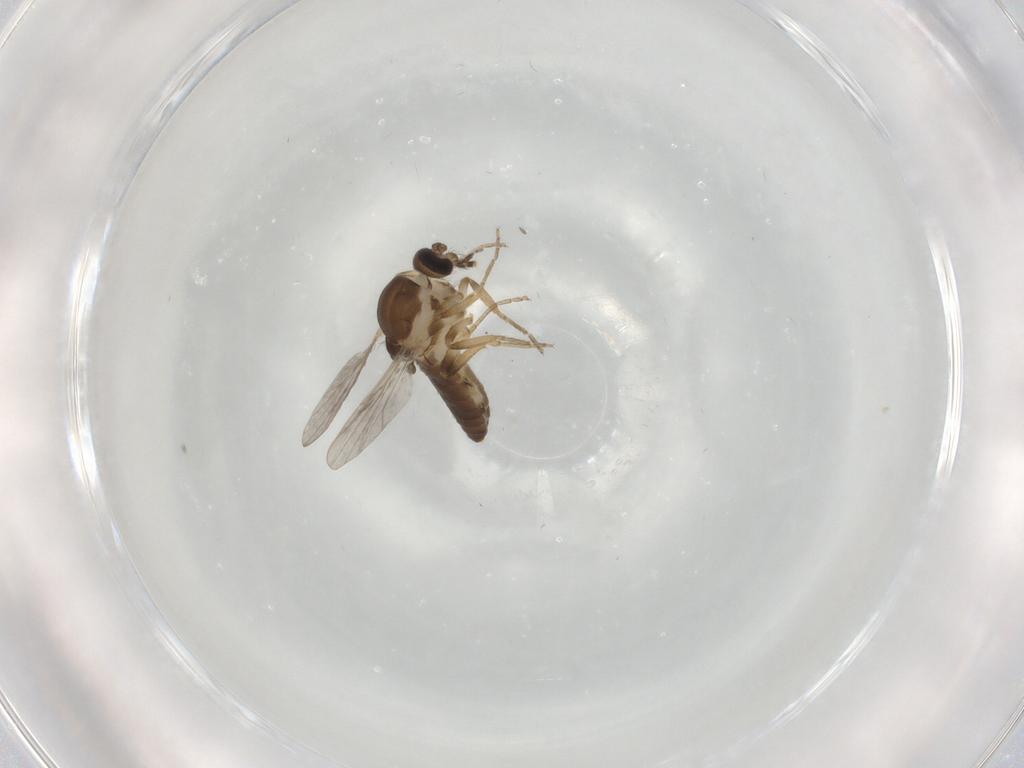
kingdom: Animalia
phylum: Arthropoda
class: Insecta
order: Diptera
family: Ceratopogonidae
